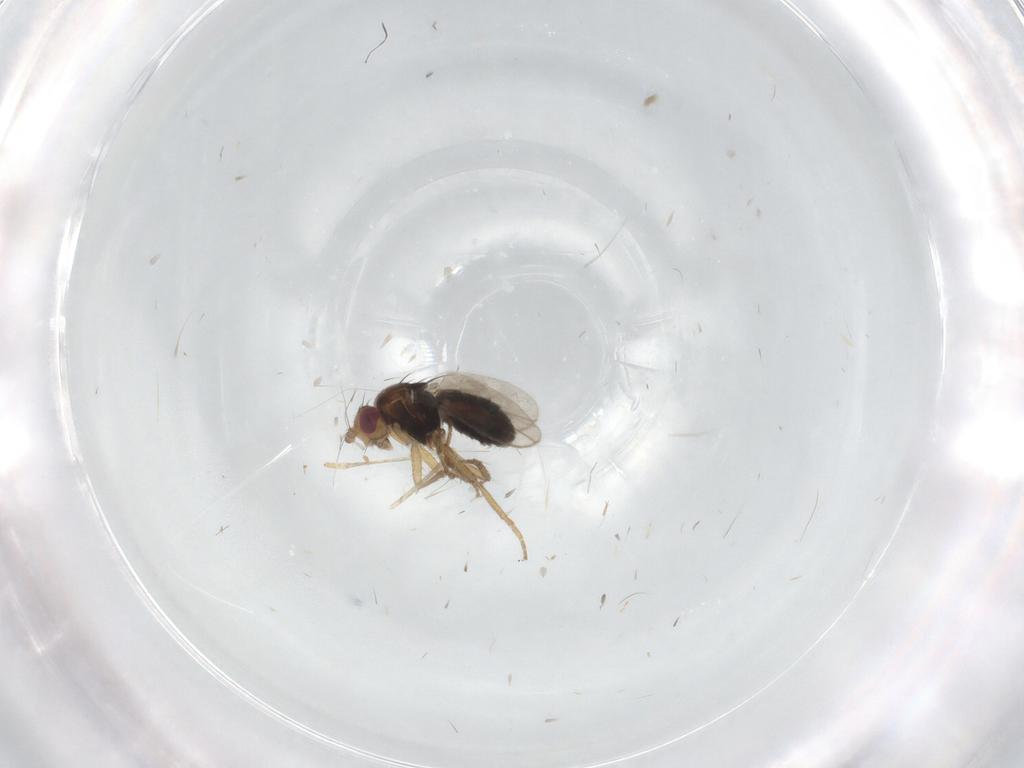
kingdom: Animalia
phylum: Arthropoda
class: Insecta
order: Diptera
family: Sphaeroceridae
